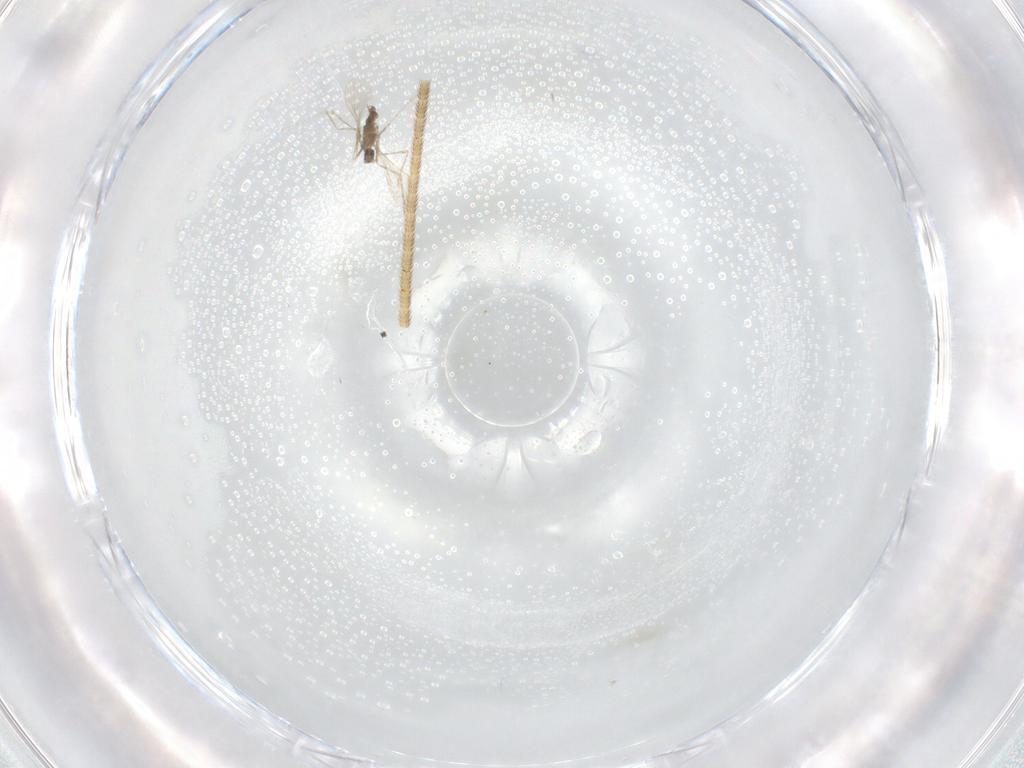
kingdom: Animalia
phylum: Arthropoda
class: Insecta
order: Diptera
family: Cecidomyiidae
